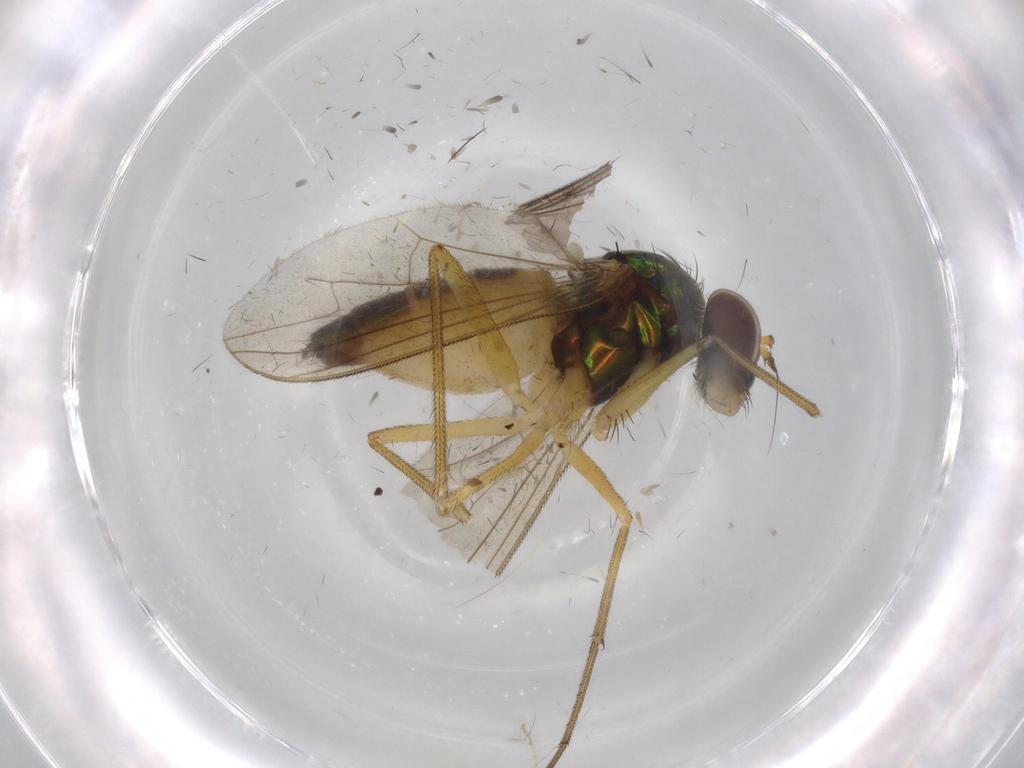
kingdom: Animalia
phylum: Arthropoda
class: Insecta
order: Diptera
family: Dolichopodidae
